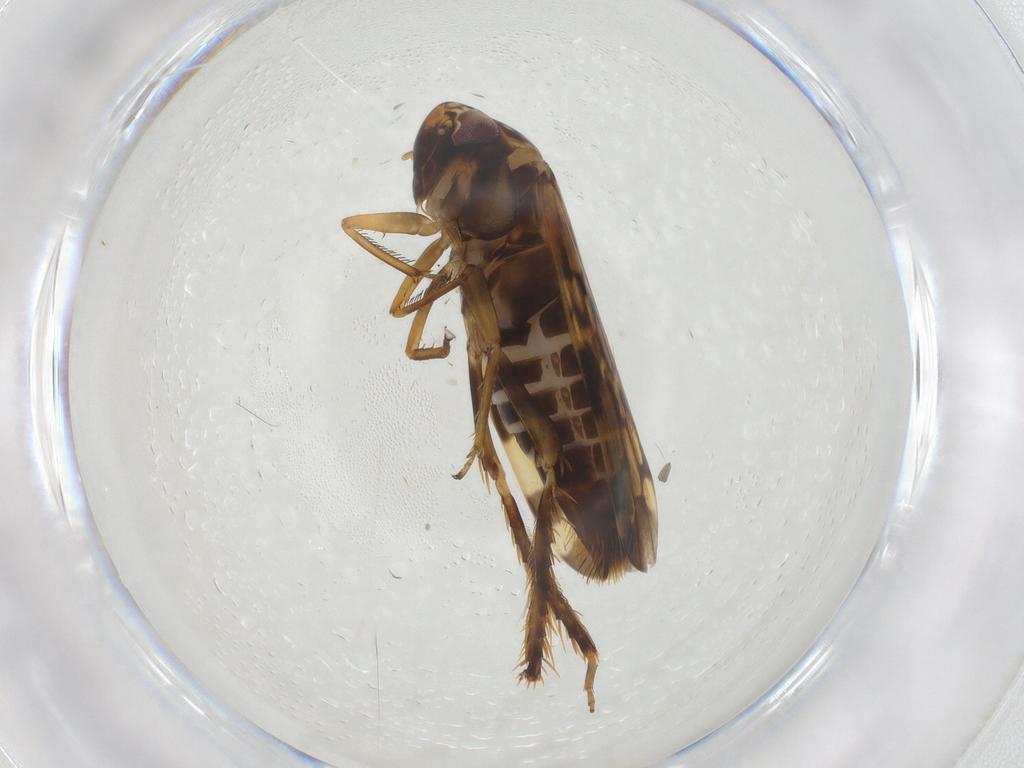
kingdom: Animalia
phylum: Arthropoda
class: Insecta
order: Hemiptera
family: Cicadellidae
